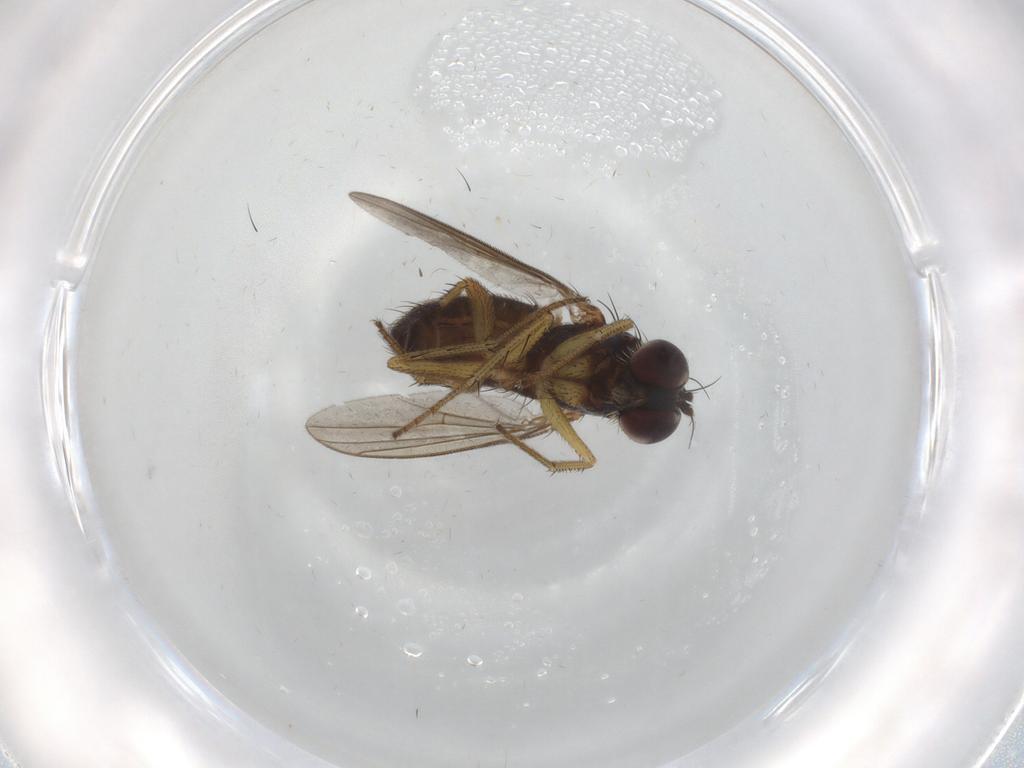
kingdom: Animalia
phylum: Arthropoda
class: Insecta
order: Diptera
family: Dolichopodidae
